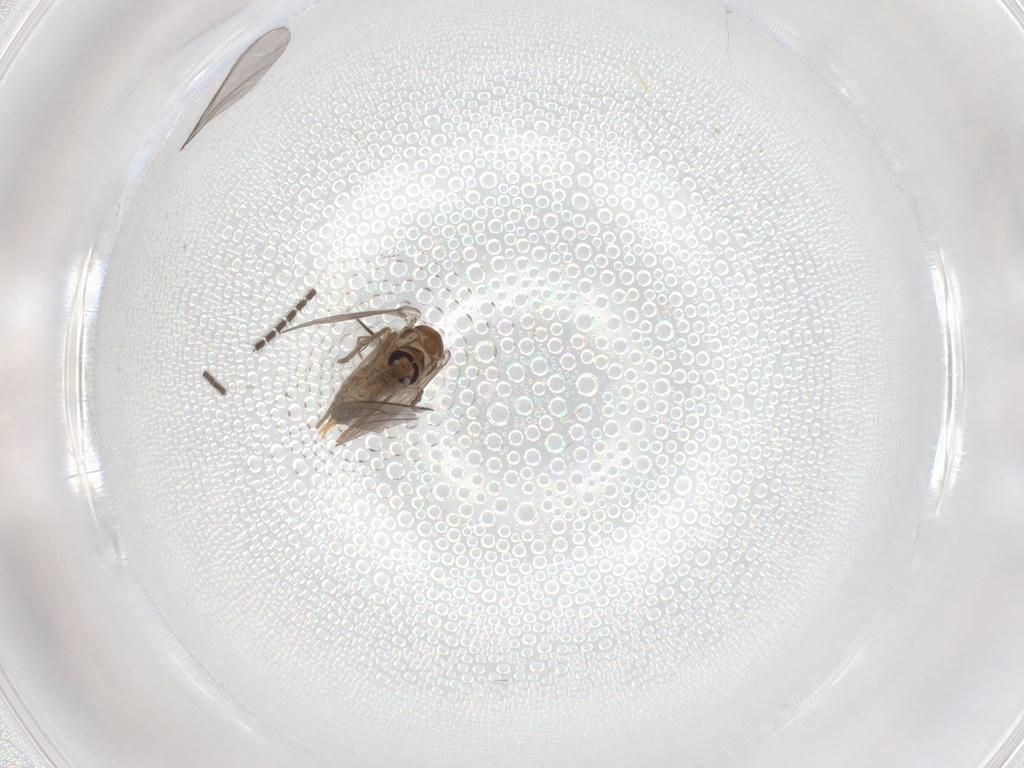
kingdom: Animalia
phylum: Arthropoda
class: Insecta
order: Diptera
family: Psychodidae
